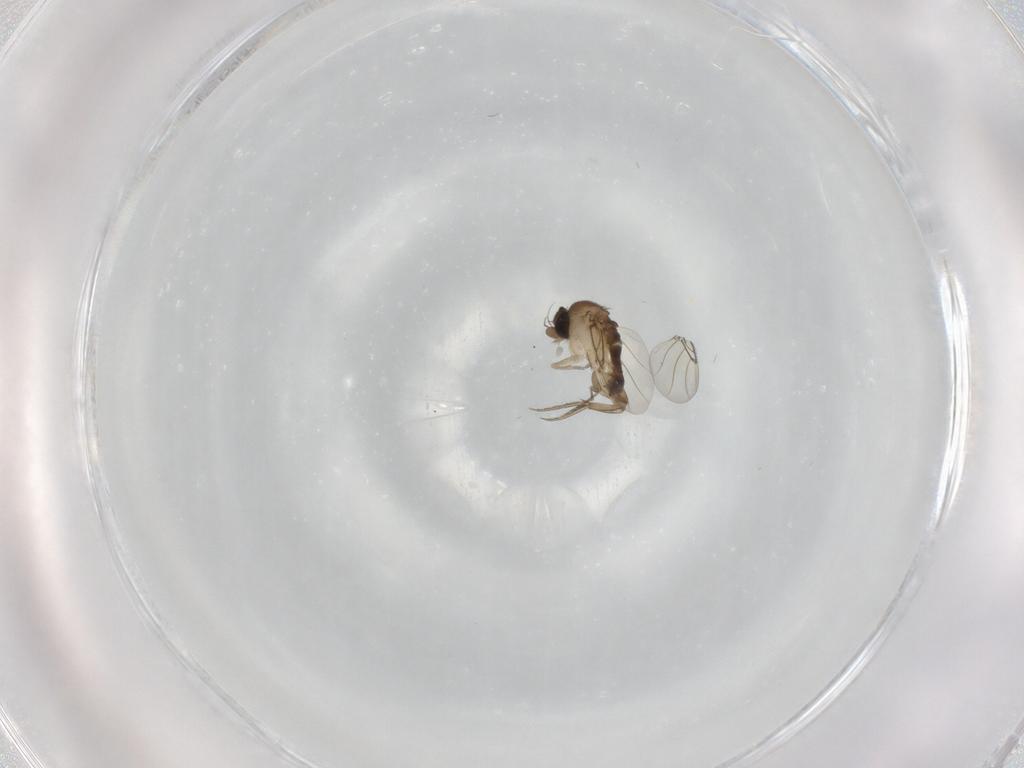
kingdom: Animalia
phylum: Arthropoda
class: Insecta
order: Diptera
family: Phoridae
